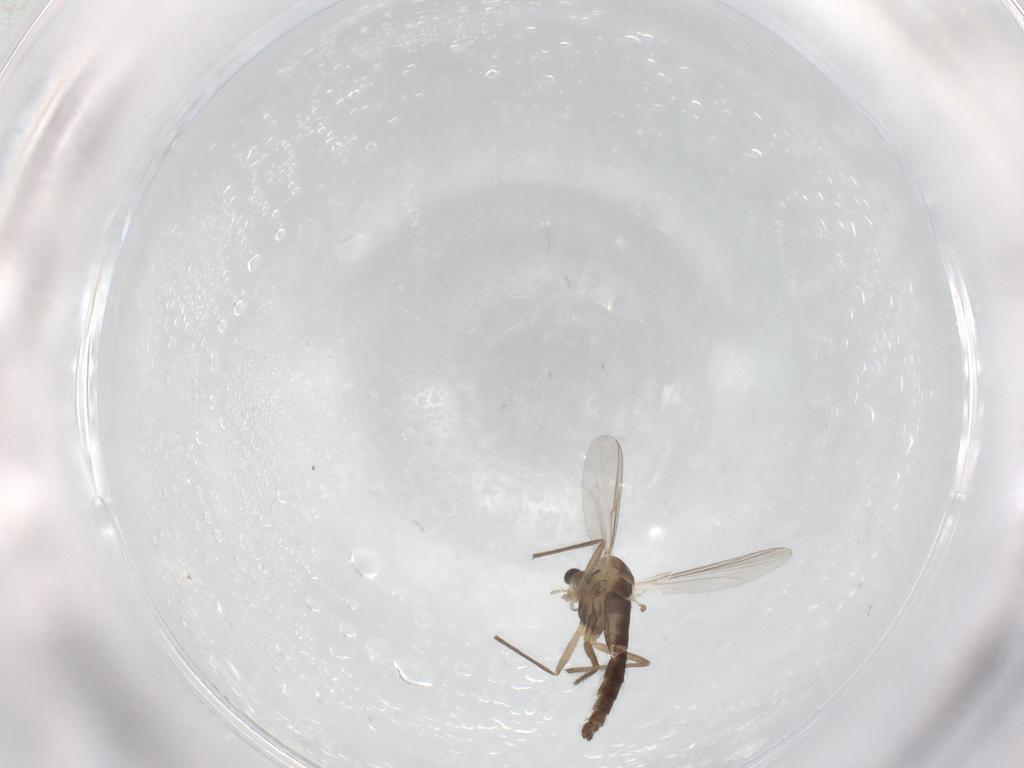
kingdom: Animalia
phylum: Arthropoda
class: Insecta
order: Diptera
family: Chironomidae
